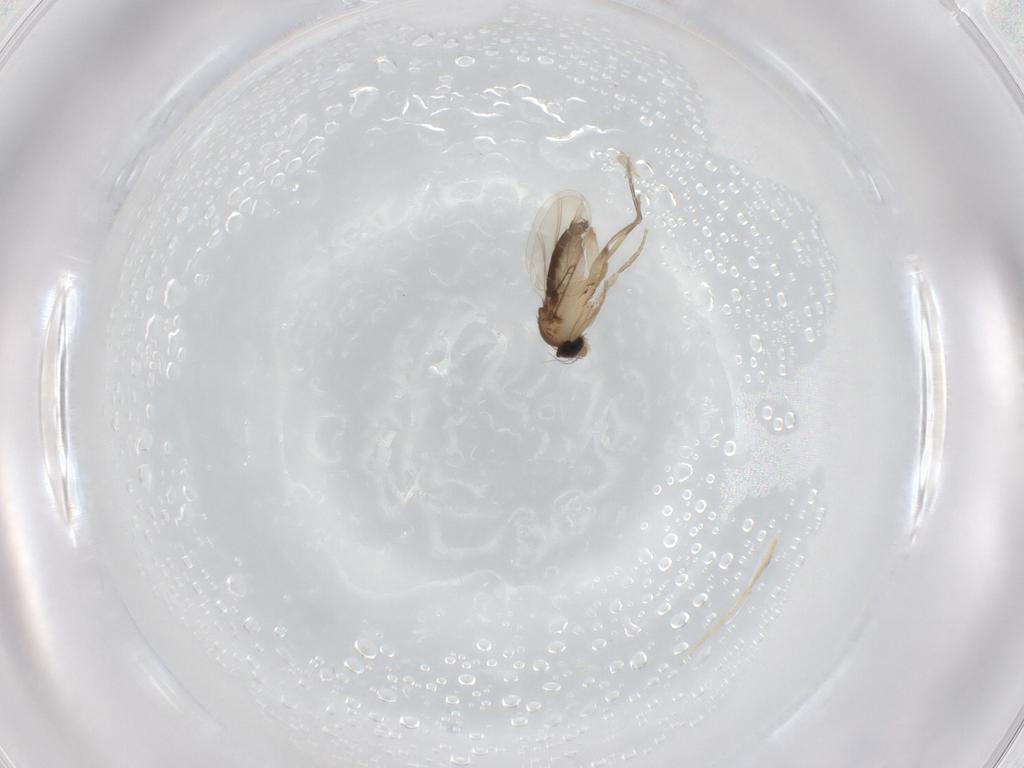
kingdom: Animalia
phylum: Arthropoda
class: Insecta
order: Diptera
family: Phoridae
